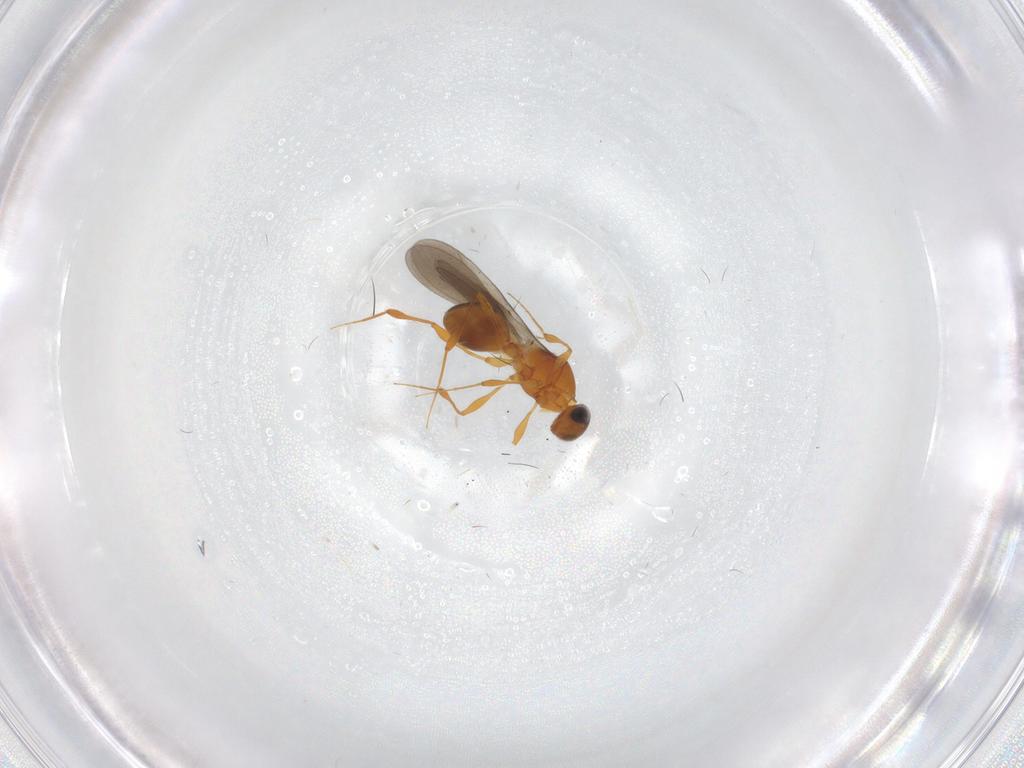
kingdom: Animalia
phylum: Arthropoda
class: Insecta
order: Hymenoptera
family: Platygastridae
